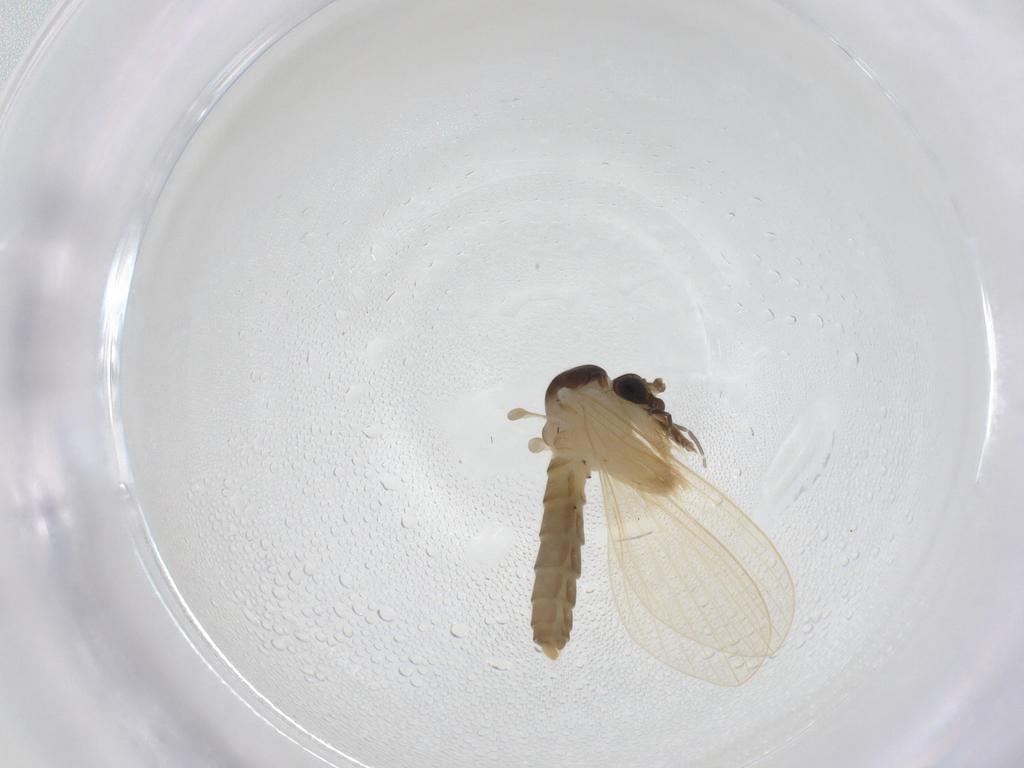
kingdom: Animalia
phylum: Arthropoda
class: Insecta
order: Diptera
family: Psychodidae
